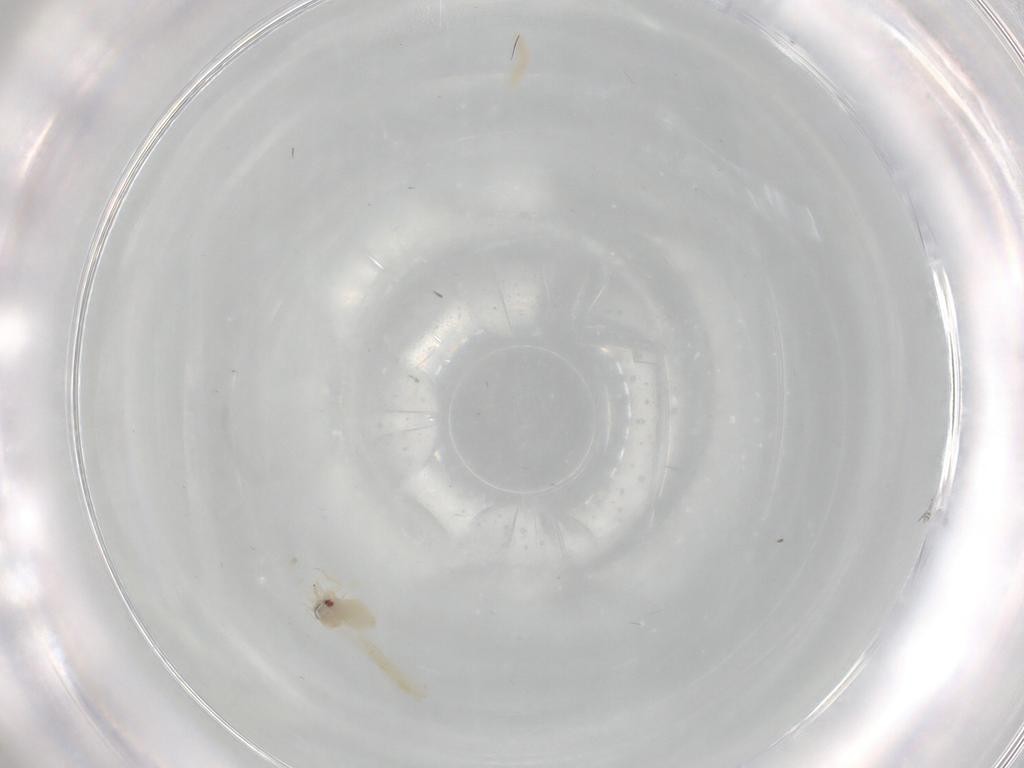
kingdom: Animalia
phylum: Arthropoda
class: Insecta
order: Hemiptera
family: Aleyrodidae
